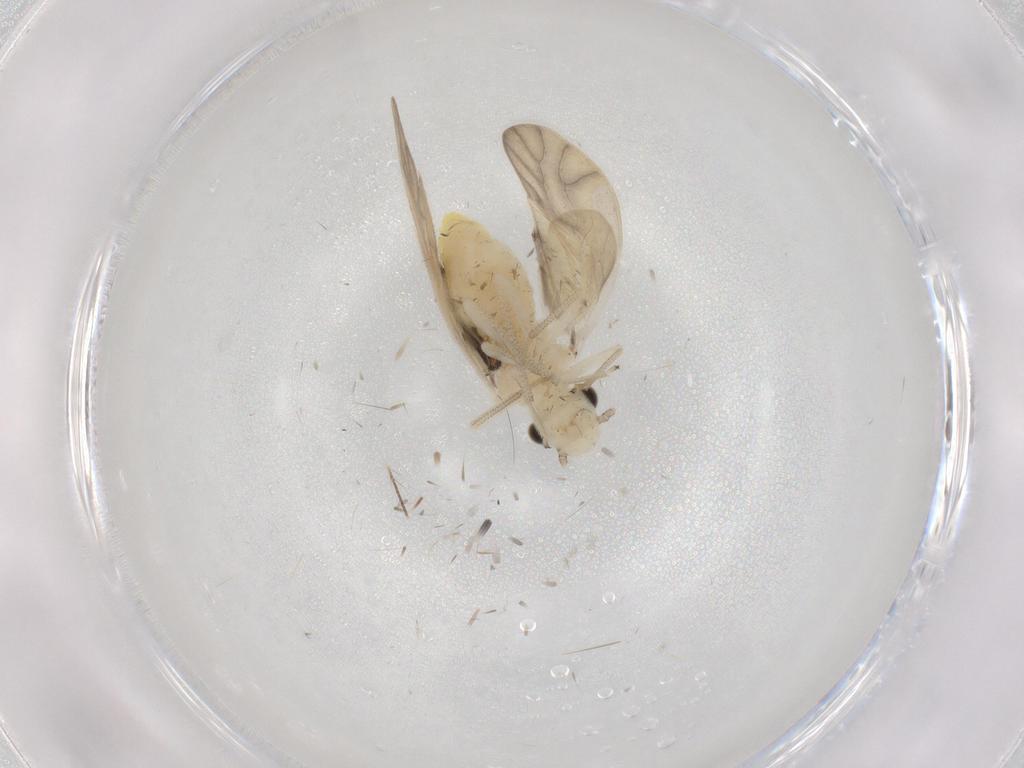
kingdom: Animalia
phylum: Arthropoda
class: Insecta
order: Psocodea
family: Caeciliusidae
